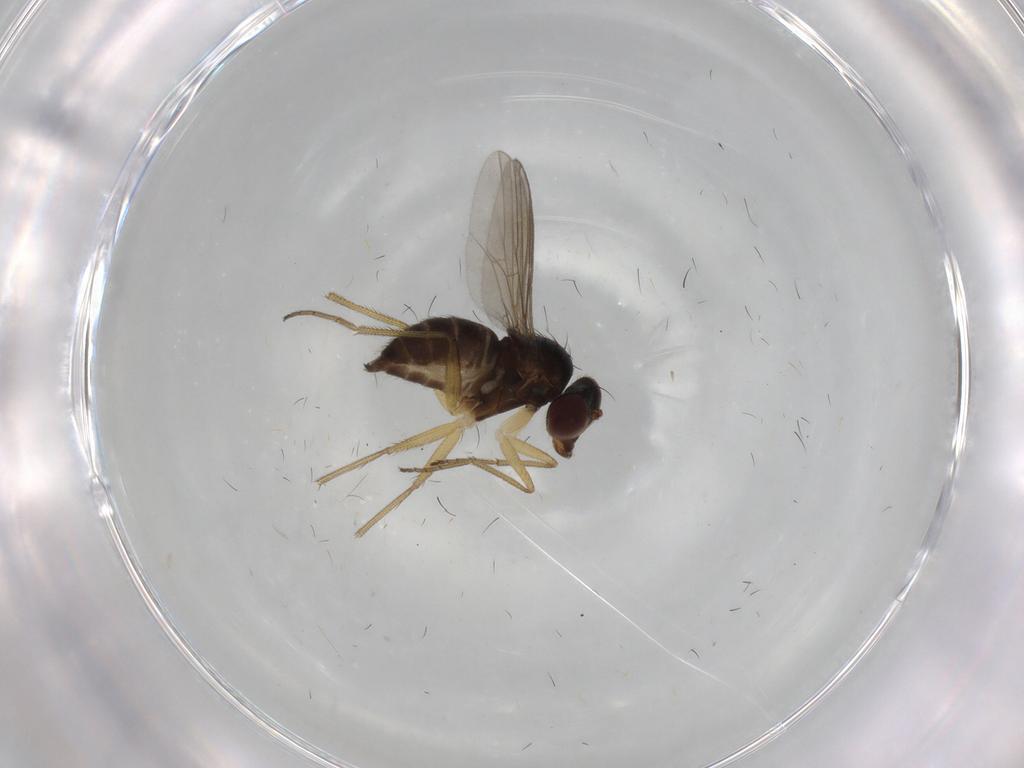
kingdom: Animalia
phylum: Arthropoda
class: Insecta
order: Diptera
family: Dolichopodidae
